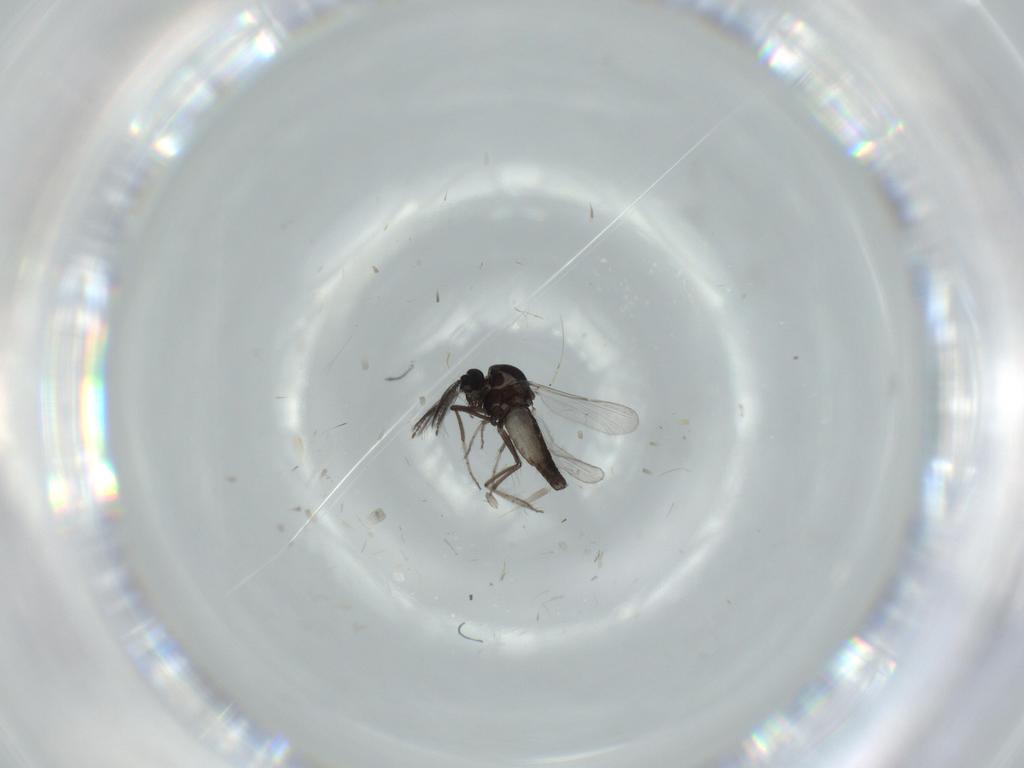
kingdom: Animalia
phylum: Arthropoda
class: Insecta
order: Diptera
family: Ceratopogonidae
